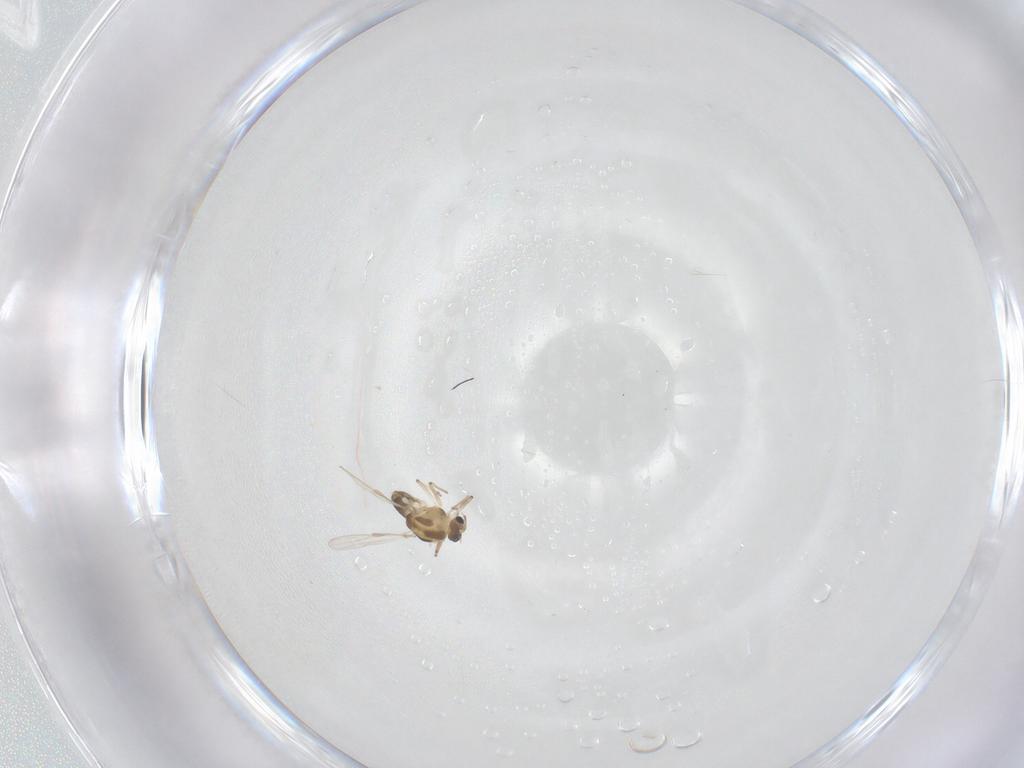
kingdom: Animalia
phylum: Arthropoda
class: Insecta
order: Diptera
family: Chironomidae
